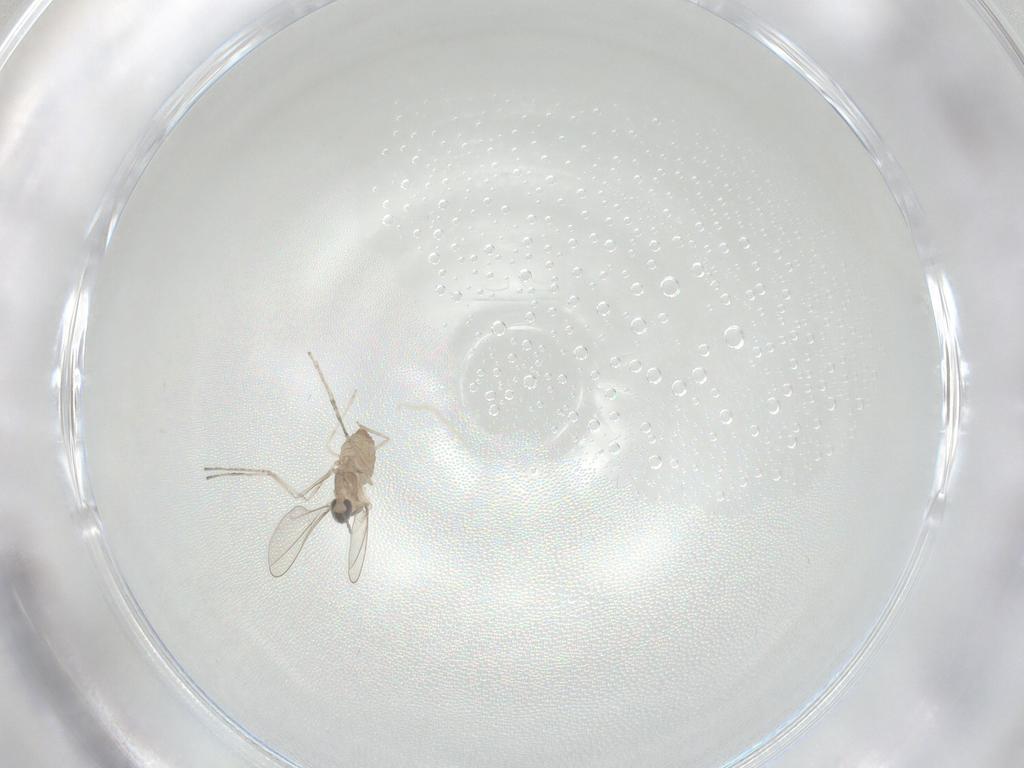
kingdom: Animalia
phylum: Arthropoda
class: Insecta
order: Diptera
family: Cecidomyiidae
